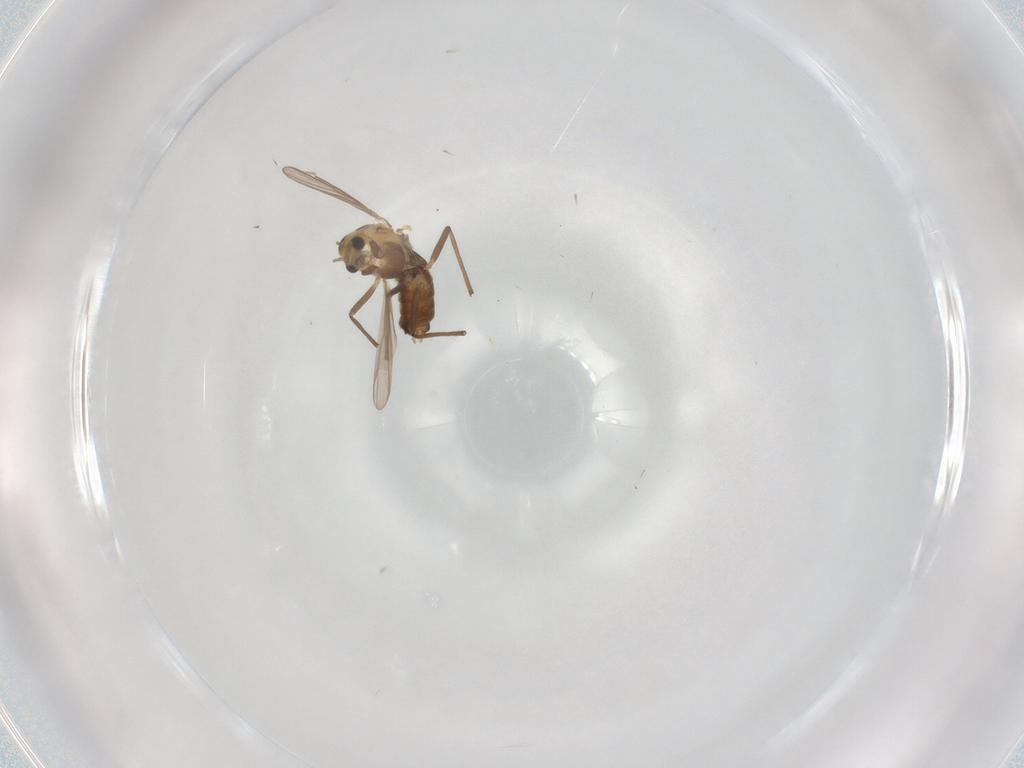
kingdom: Animalia
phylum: Arthropoda
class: Insecta
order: Diptera
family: Chironomidae
